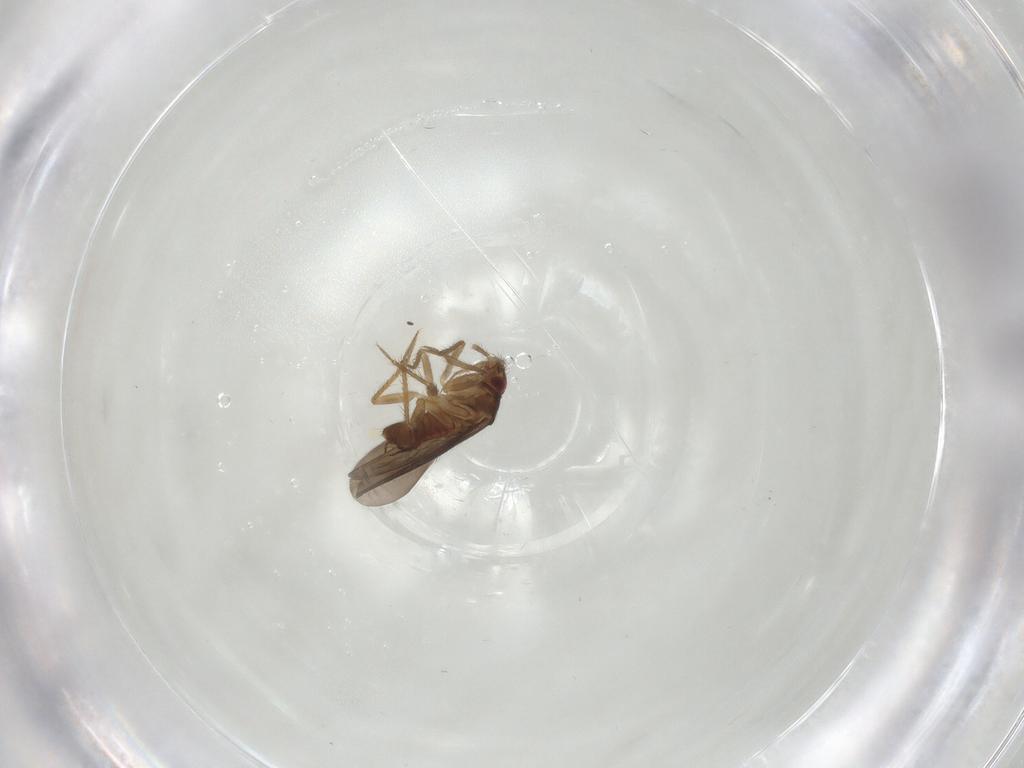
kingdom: Animalia
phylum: Arthropoda
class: Insecta
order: Hemiptera
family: Ceratocombidae
